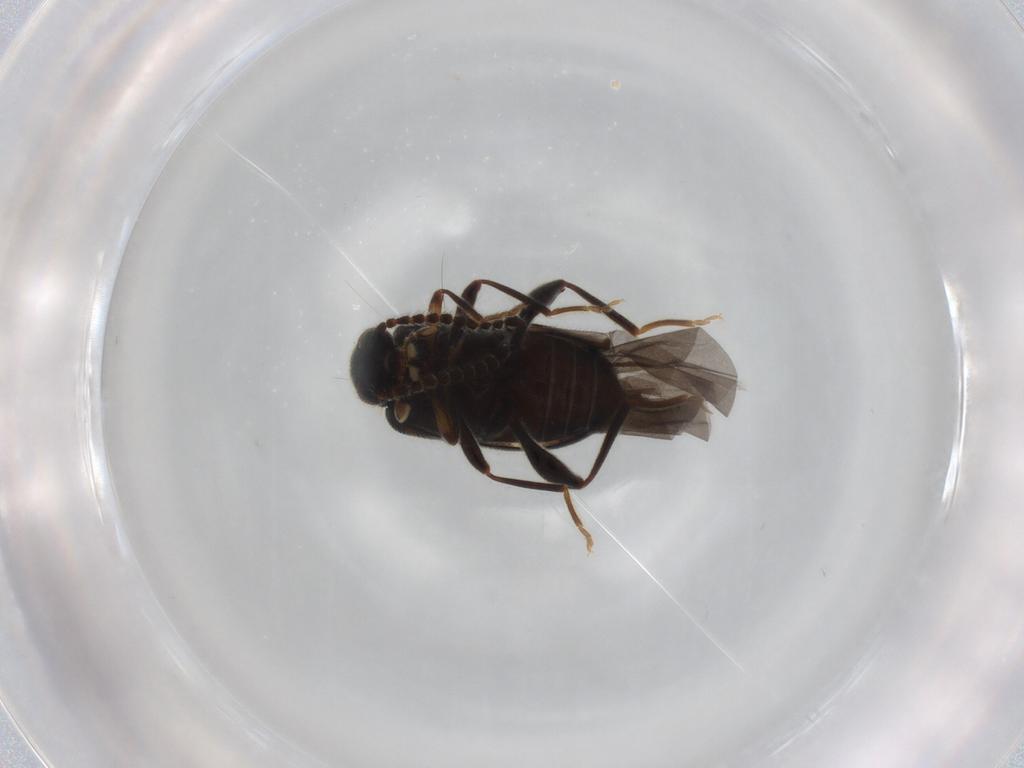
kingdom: Animalia
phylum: Arthropoda
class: Insecta
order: Coleoptera
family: Aderidae
